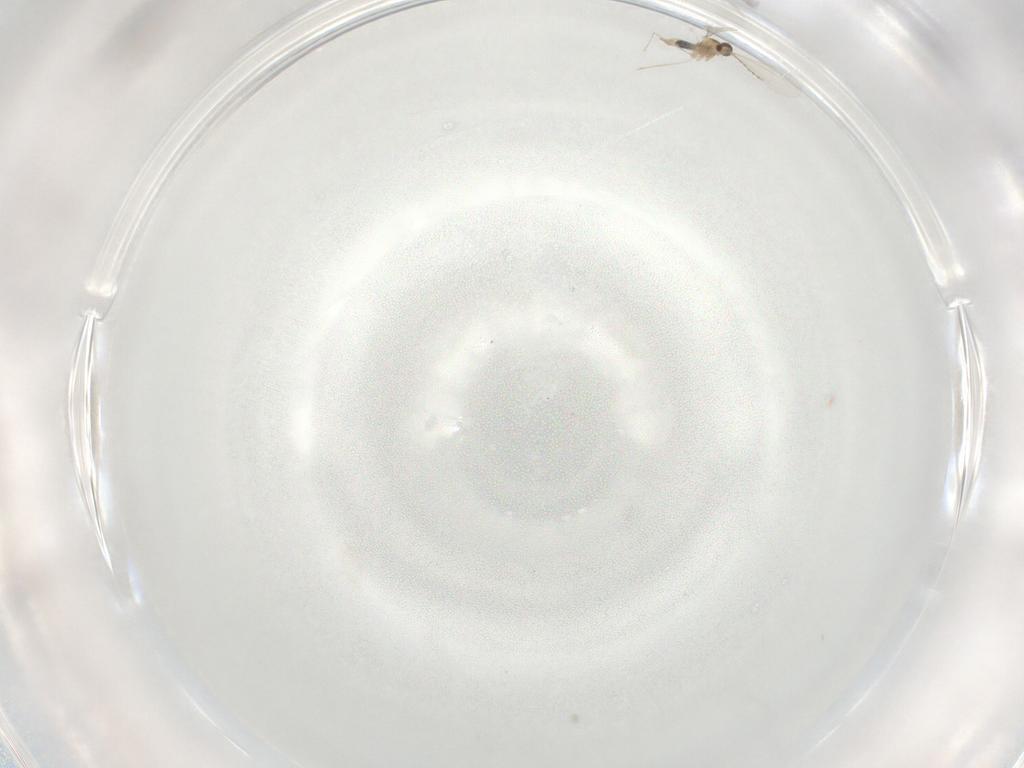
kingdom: Animalia
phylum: Arthropoda
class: Insecta
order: Diptera
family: Cecidomyiidae
